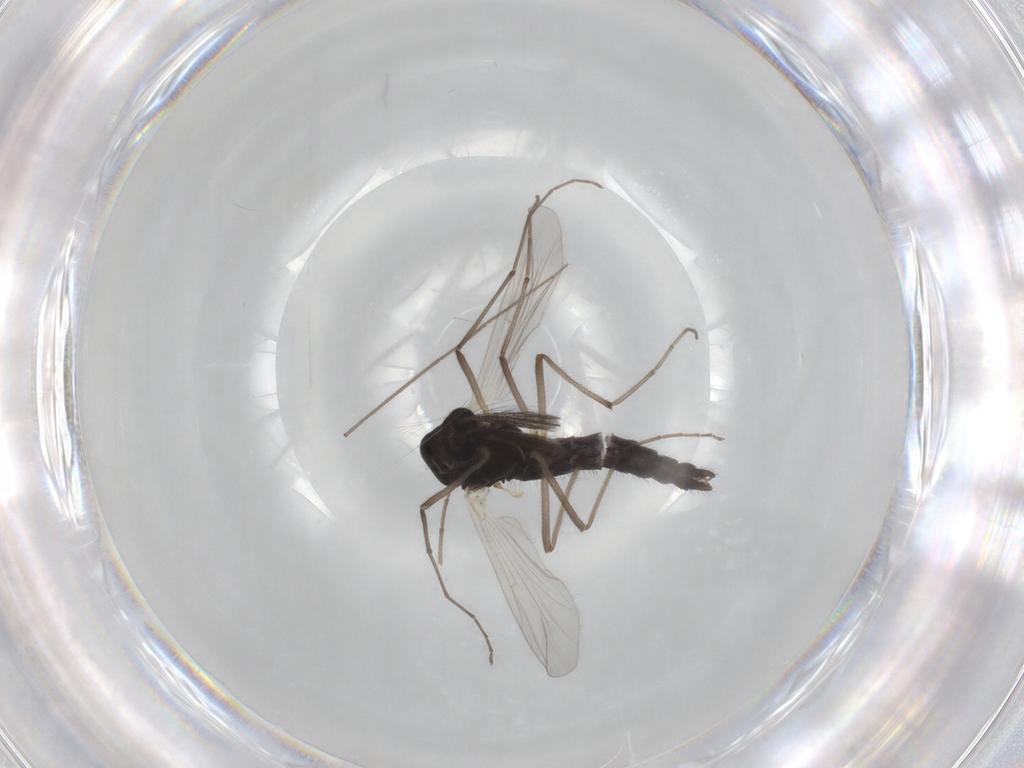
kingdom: Animalia
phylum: Arthropoda
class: Insecta
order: Diptera
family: Chironomidae
